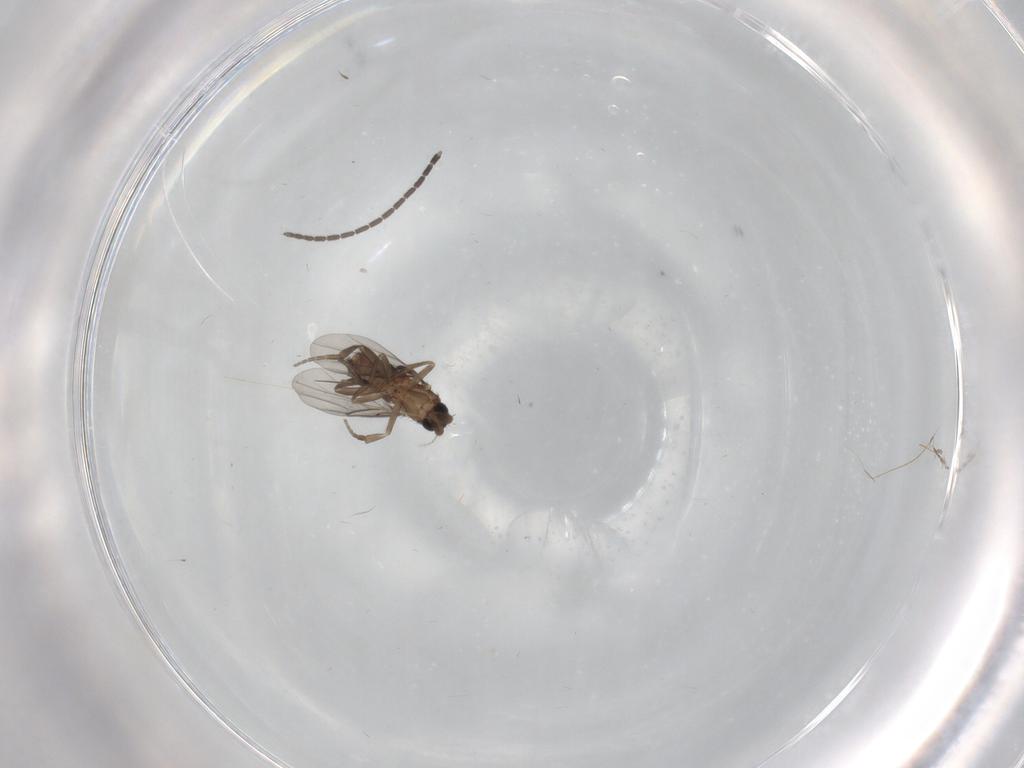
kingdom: Animalia
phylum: Arthropoda
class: Insecta
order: Diptera
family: Phoridae
